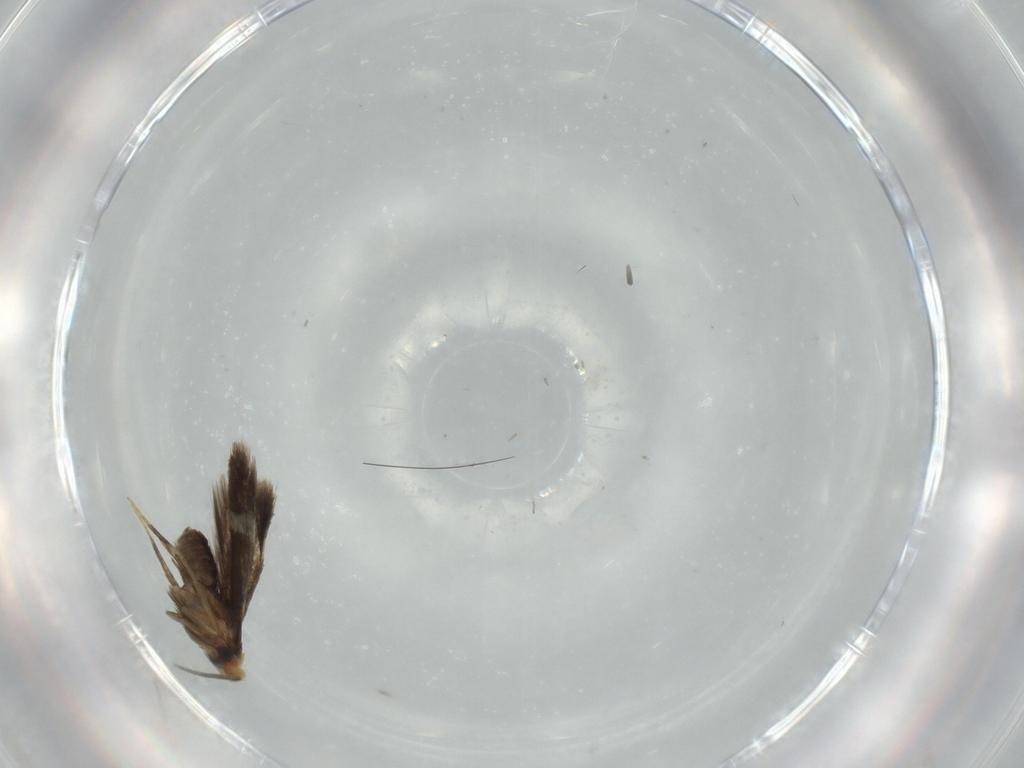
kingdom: Animalia
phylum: Arthropoda
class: Insecta
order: Lepidoptera
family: Nepticulidae
